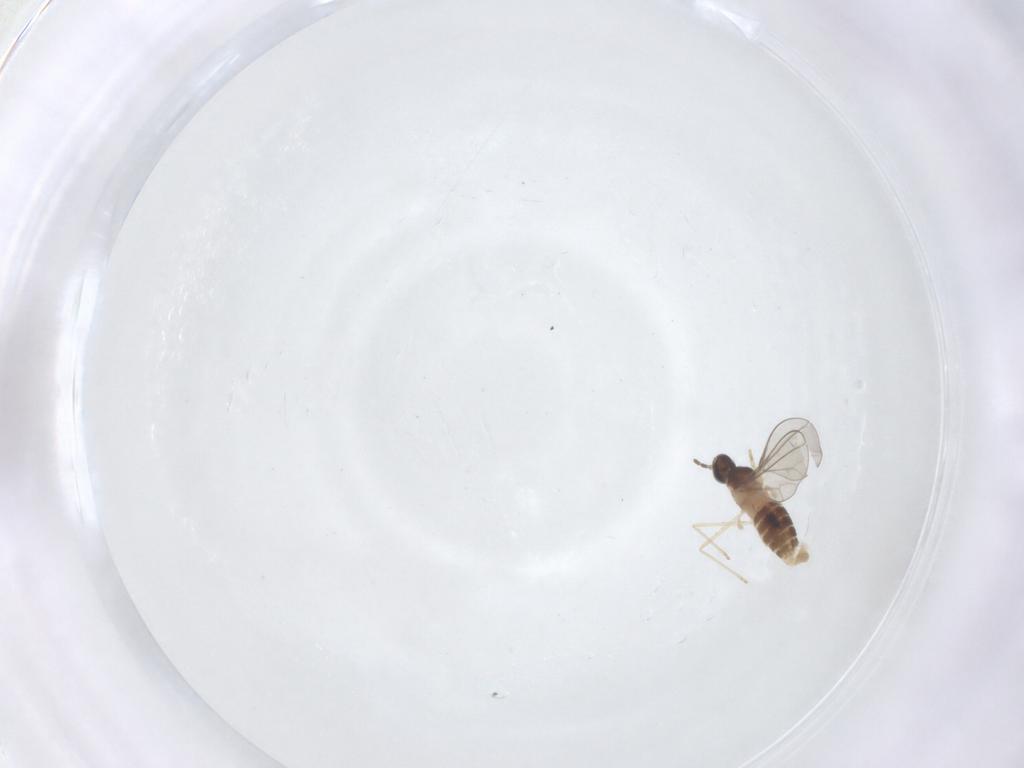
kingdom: Animalia
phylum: Arthropoda
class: Insecta
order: Diptera
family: Cecidomyiidae
